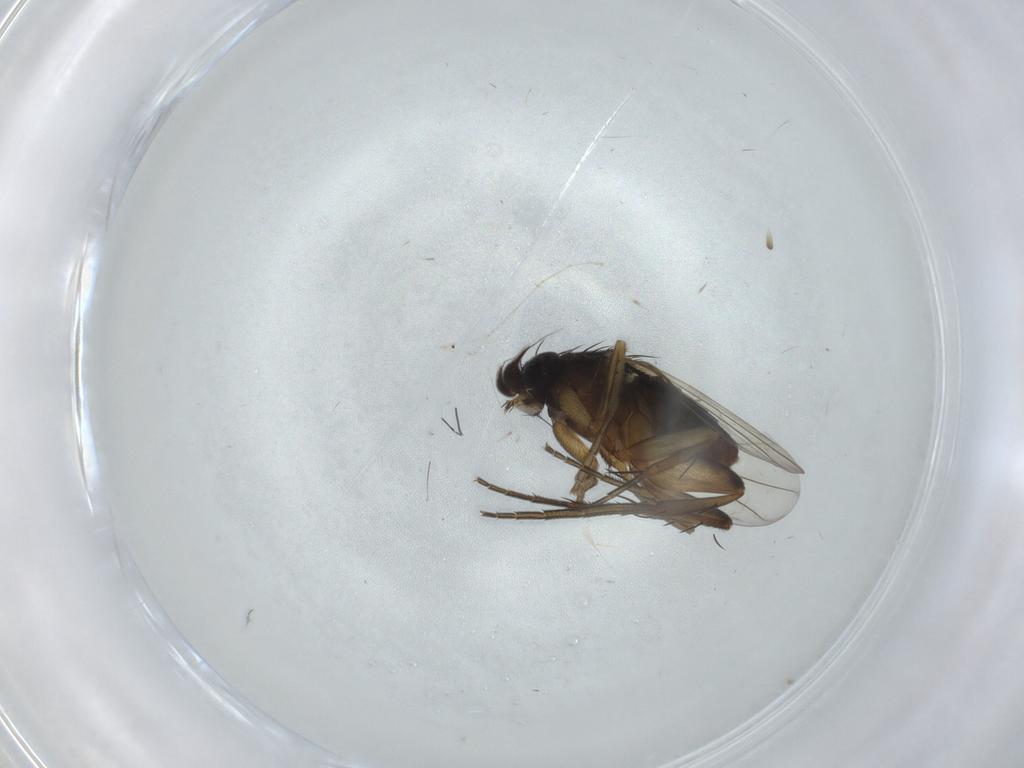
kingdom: Animalia
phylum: Arthropoda
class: Insecta
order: Diptera
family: Phoridae
